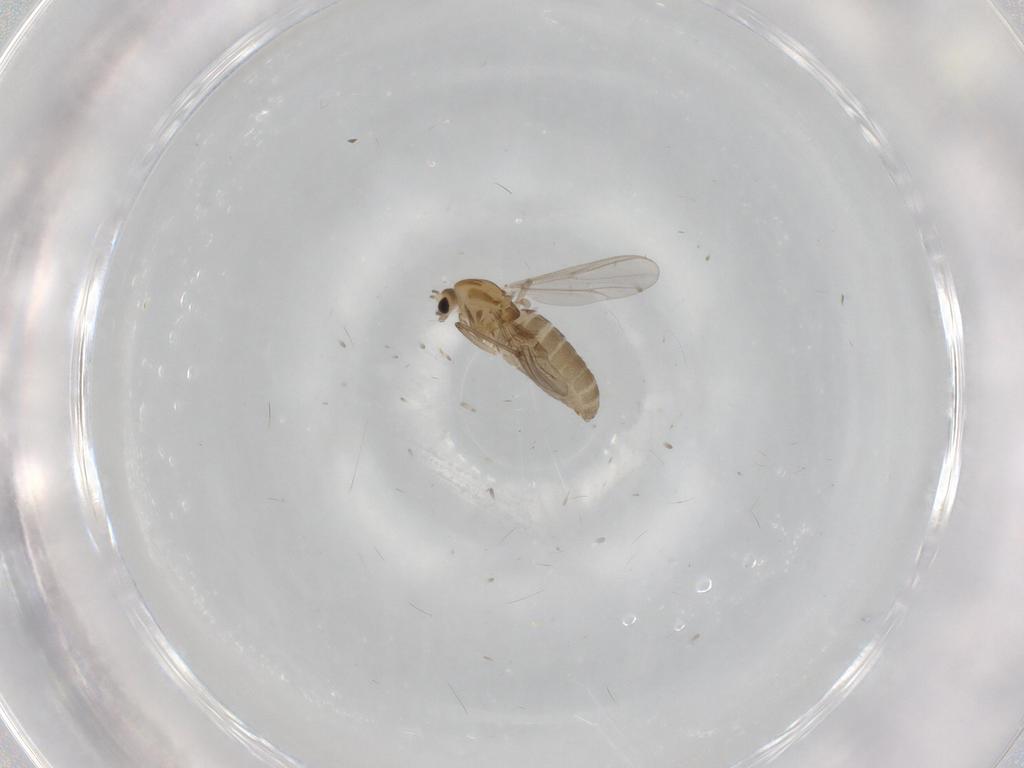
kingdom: Animalia
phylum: Arthropoda
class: Insecta
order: Diptera
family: Chironomidae
